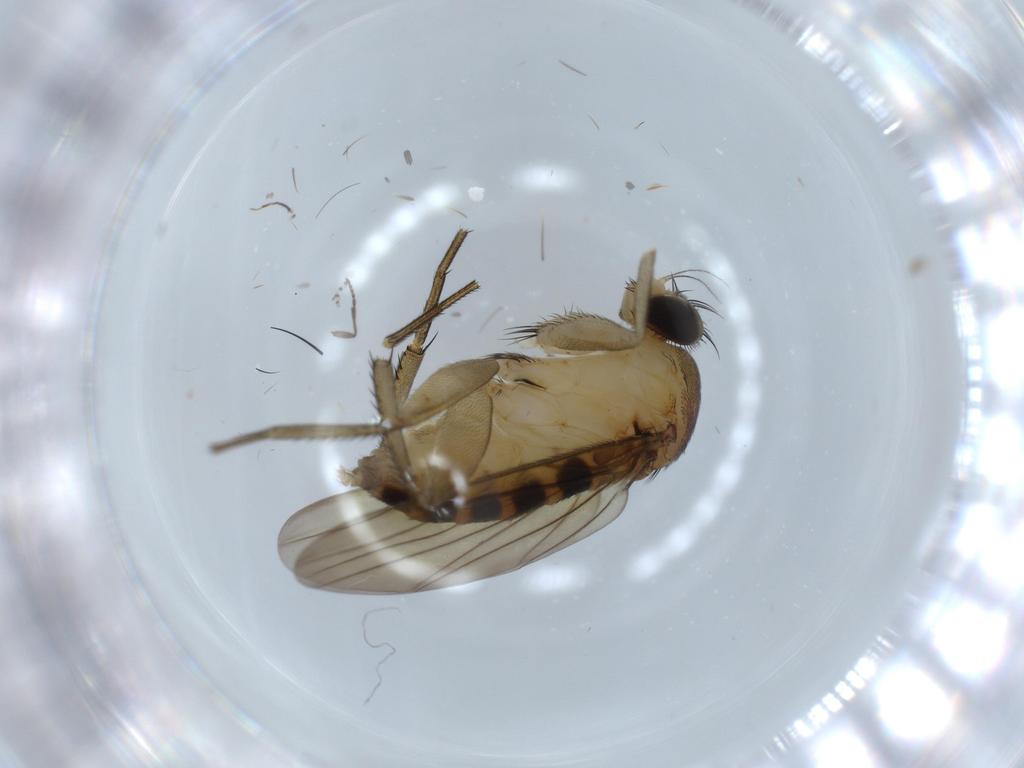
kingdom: Animalia
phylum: Arthropoda
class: Insecta
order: Diptera
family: Phoridae
